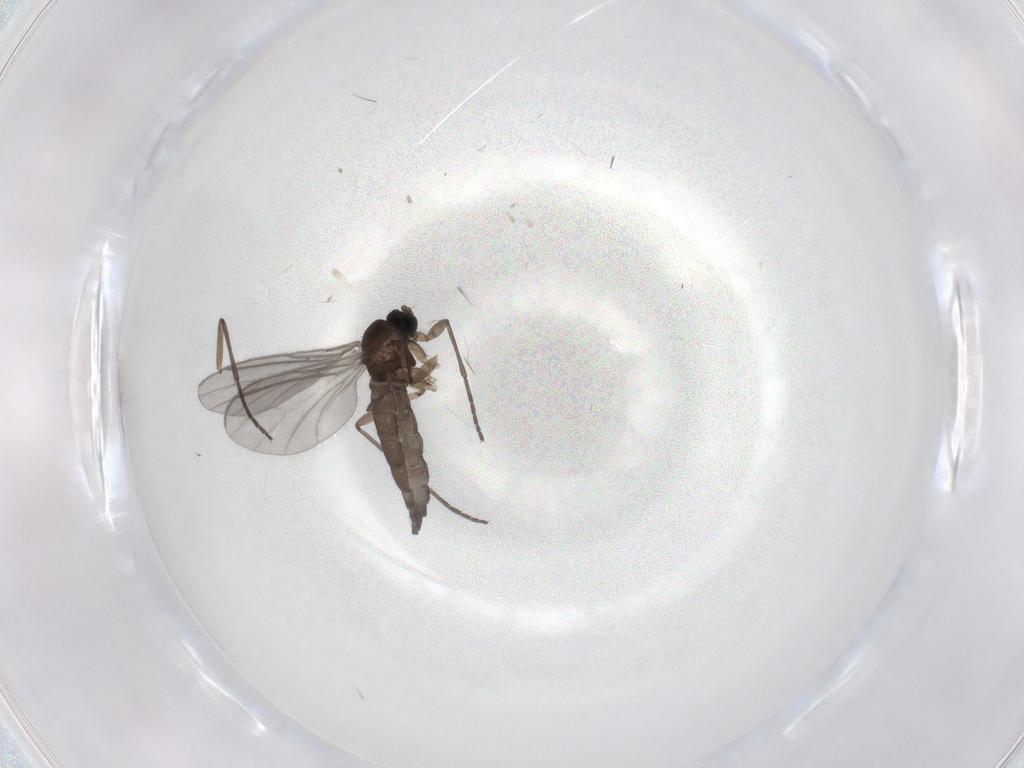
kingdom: Animalia
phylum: Arthropoda
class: Insecta
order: Diptera
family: Sciaridae
